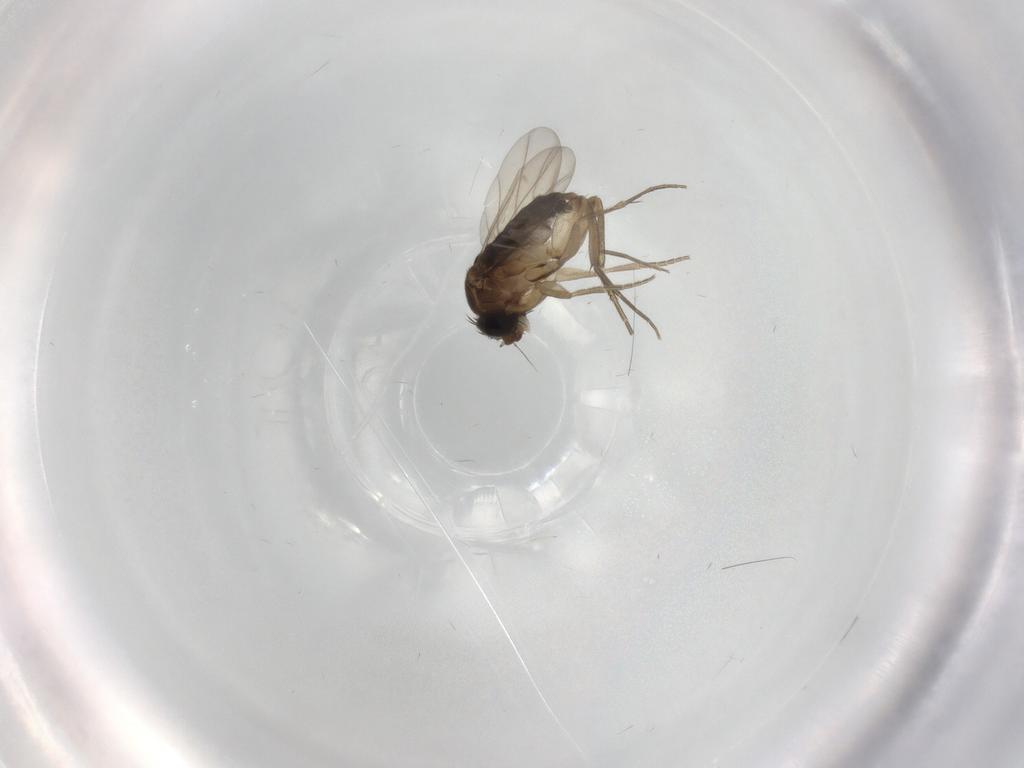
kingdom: Animalia
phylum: Arthropoda
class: Insecta
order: Diptera
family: Phoridae
